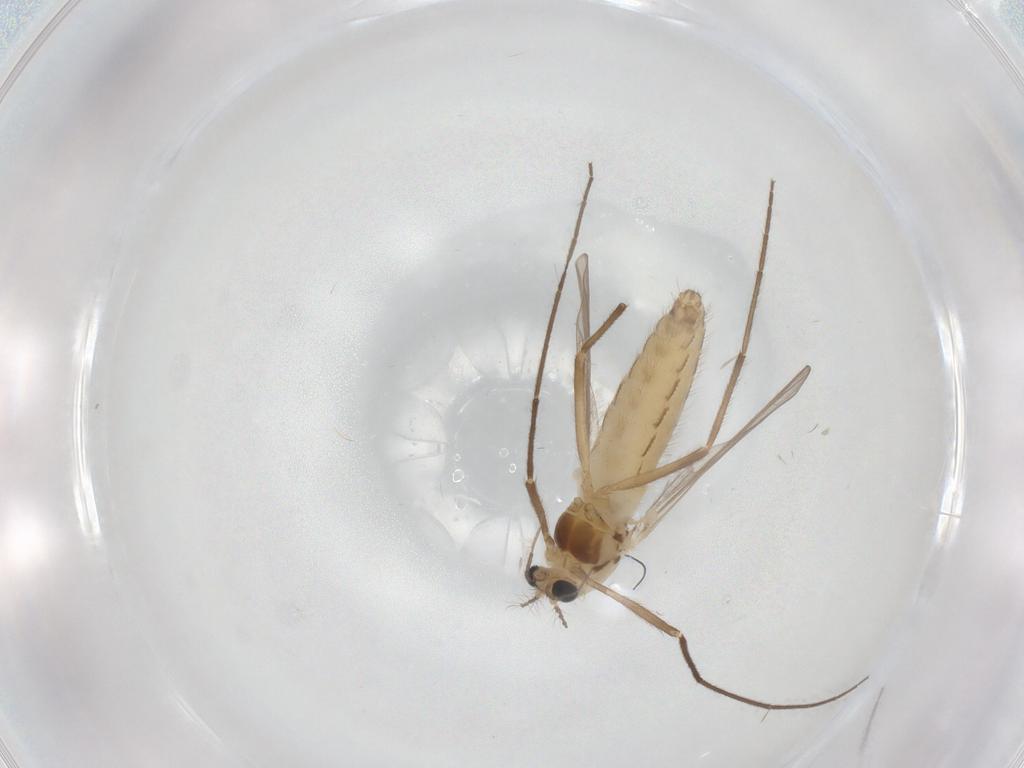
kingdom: Animalia
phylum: Arthropoda
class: Insecta
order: Diptera
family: Chironomidae
